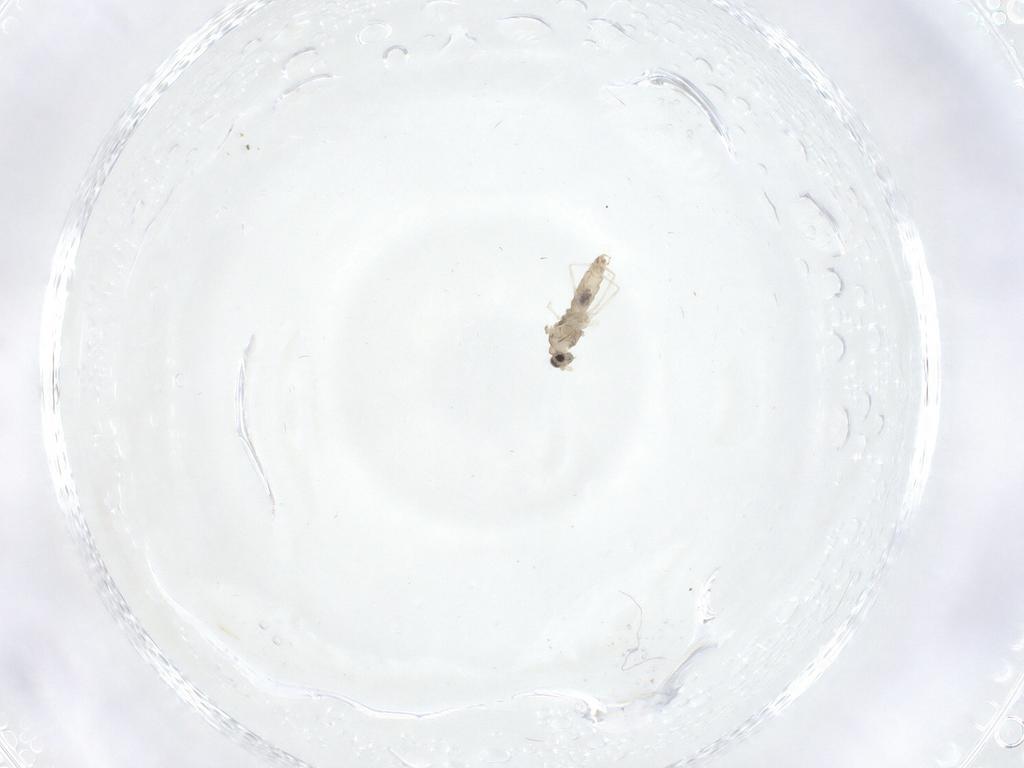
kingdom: Animalia
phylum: Arthropoda
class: Insecta
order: Diptera
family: Cecidomyiidae
